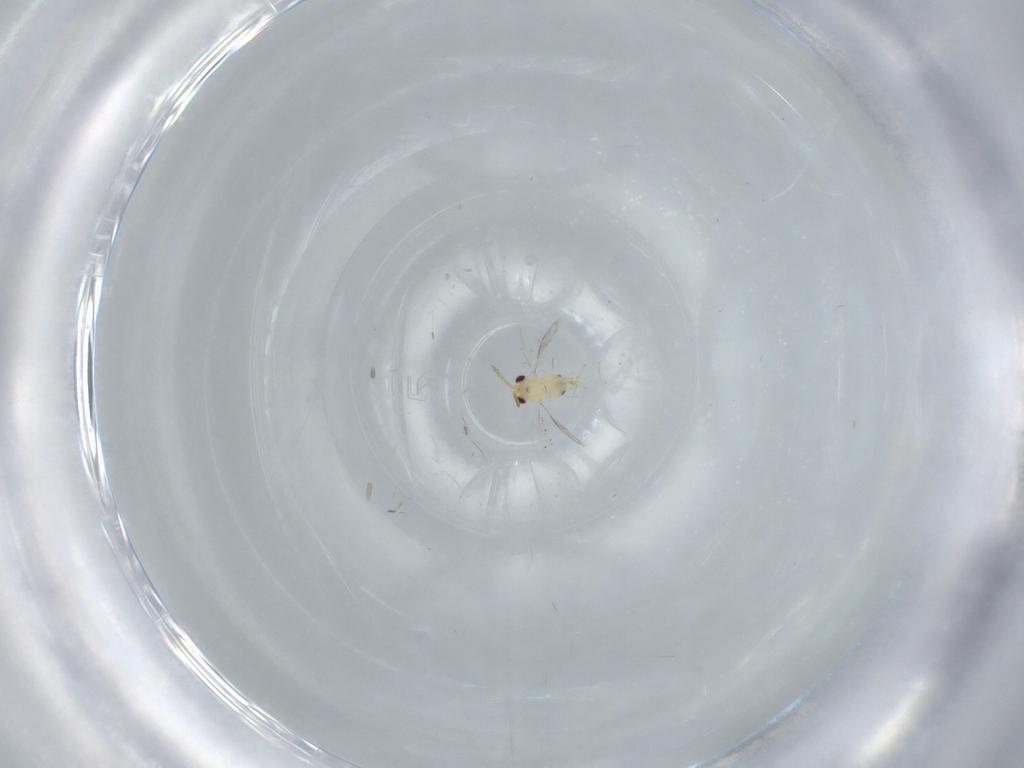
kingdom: Animalia
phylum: Arthropoda
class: Insecta
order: Hymenoptera
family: Aphelinidae
